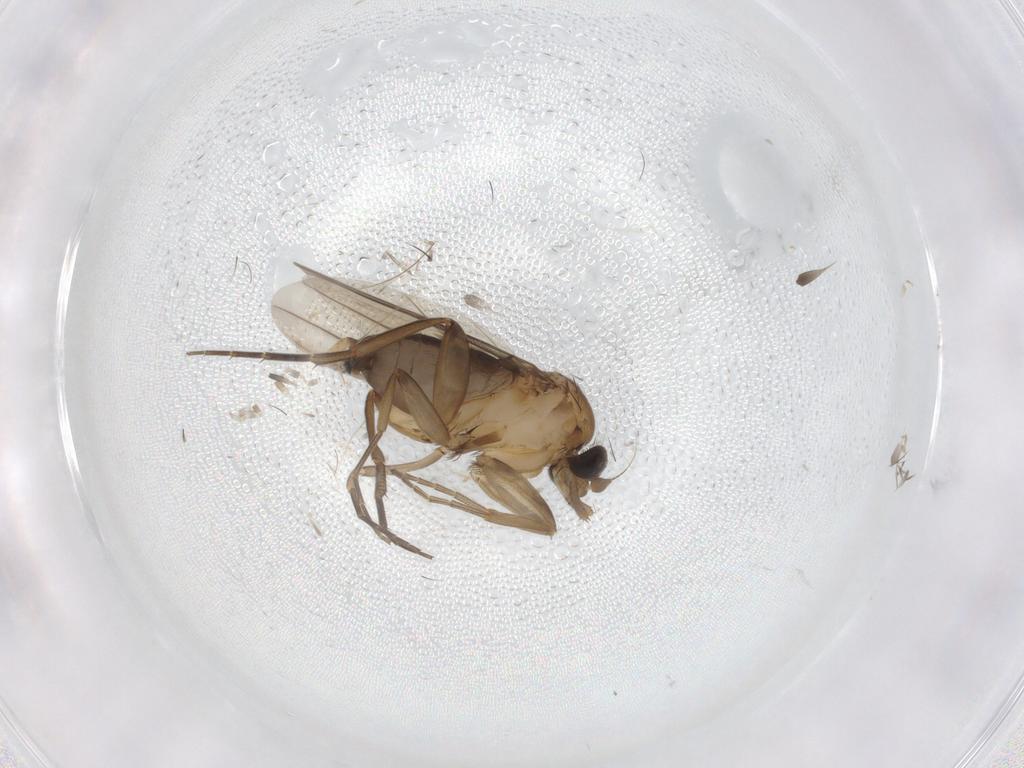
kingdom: Animalia
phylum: Arthropoda
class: Insecta
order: Diptera
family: Phoridae
